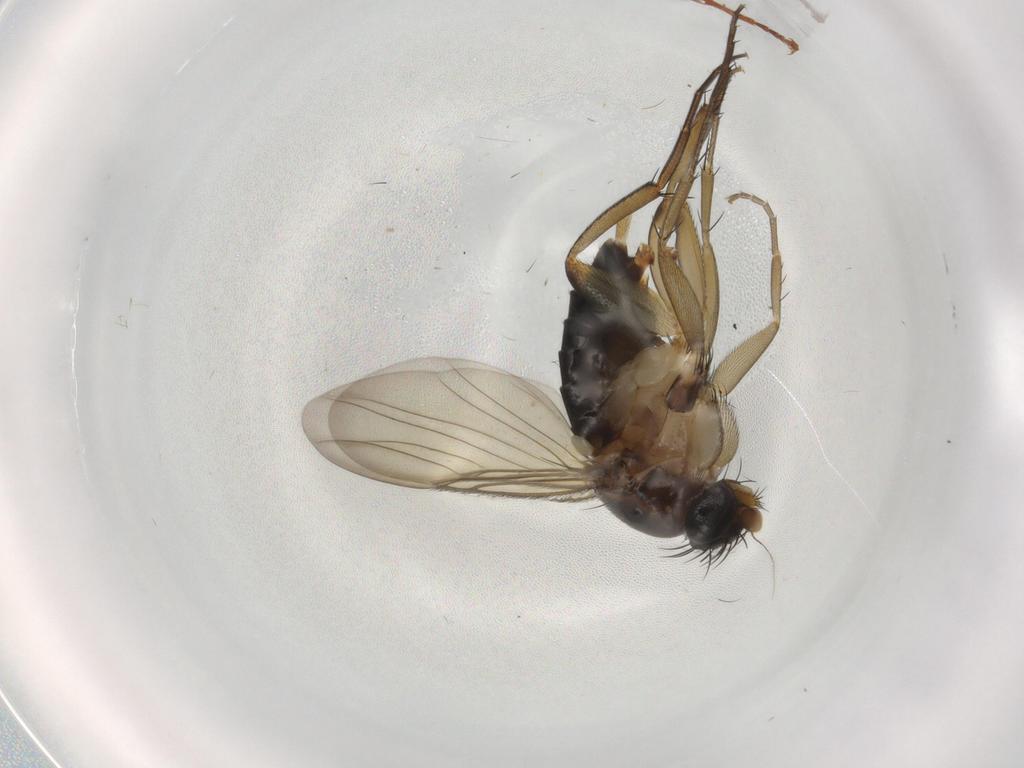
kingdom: Animalia
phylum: Arthropoda
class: Insecta
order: Diptera
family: Phoridae
